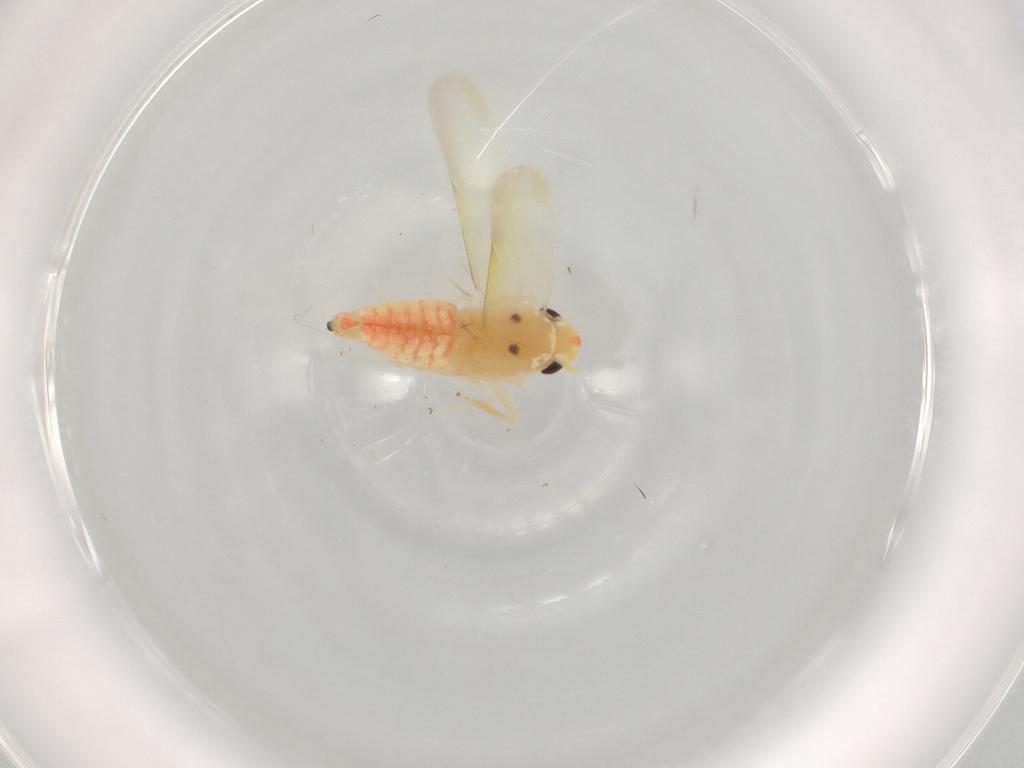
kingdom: Animalia
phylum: Arthropoda
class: Insecta
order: Hemiptera
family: Cicadellidae
